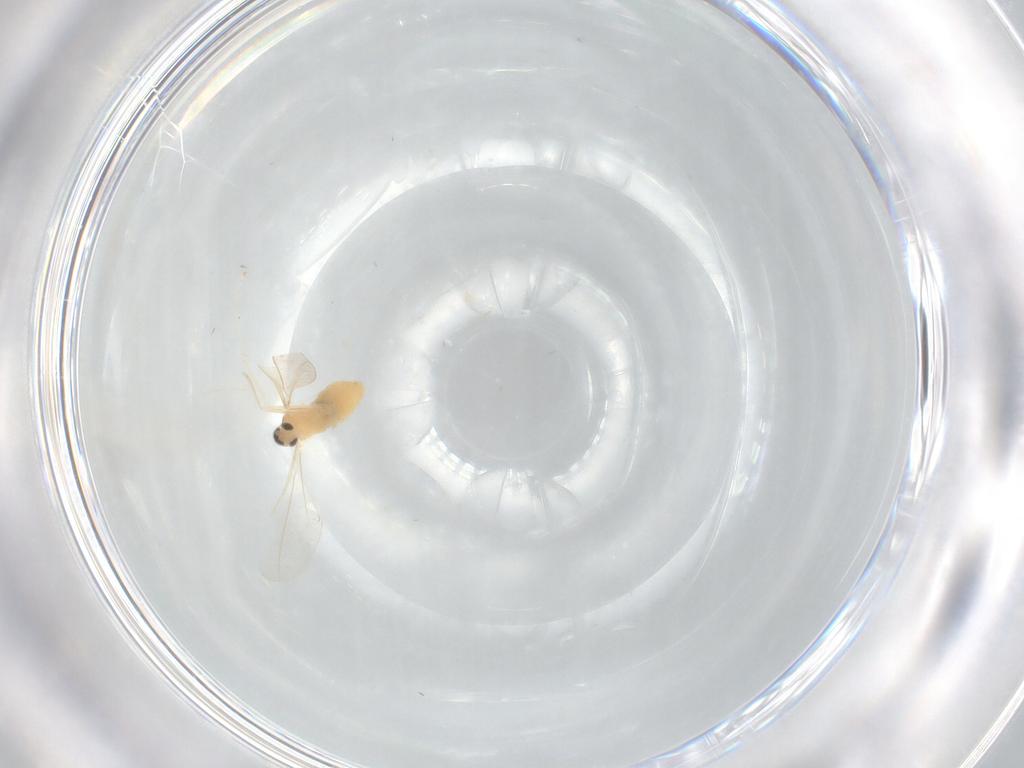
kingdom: Animalia
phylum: Arthropoda
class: Insecta
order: Diptera
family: Cecidomyiidae
